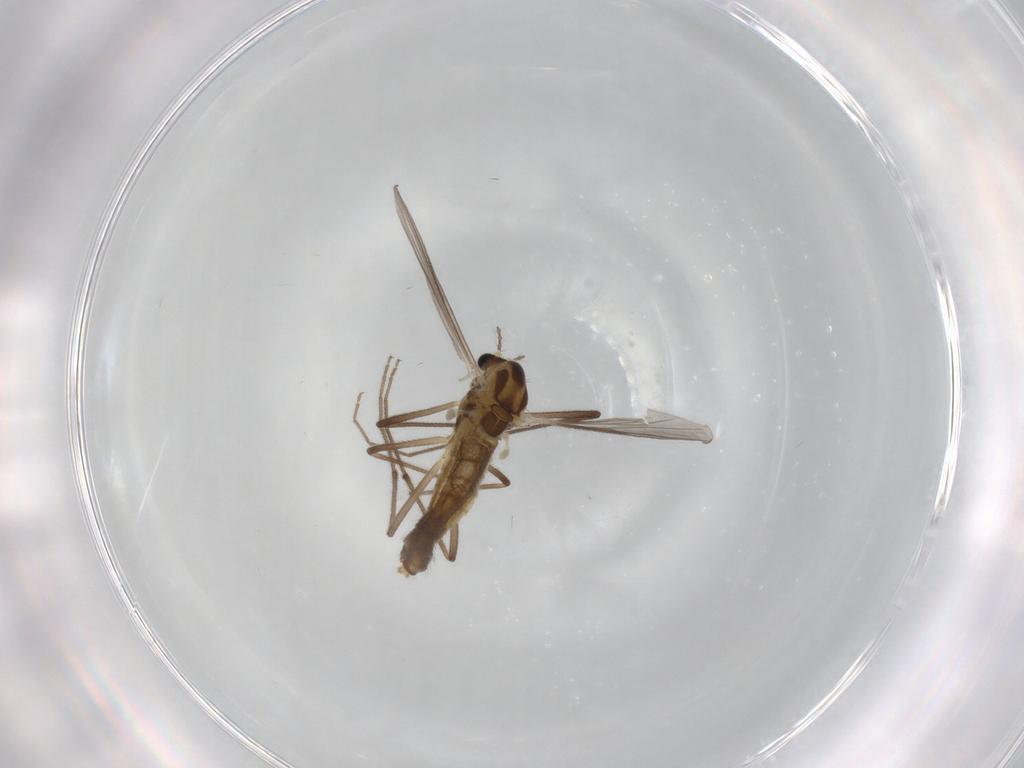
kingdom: Animalia
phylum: Arthropoda
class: Insecta
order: Diptera
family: Chironomidae
